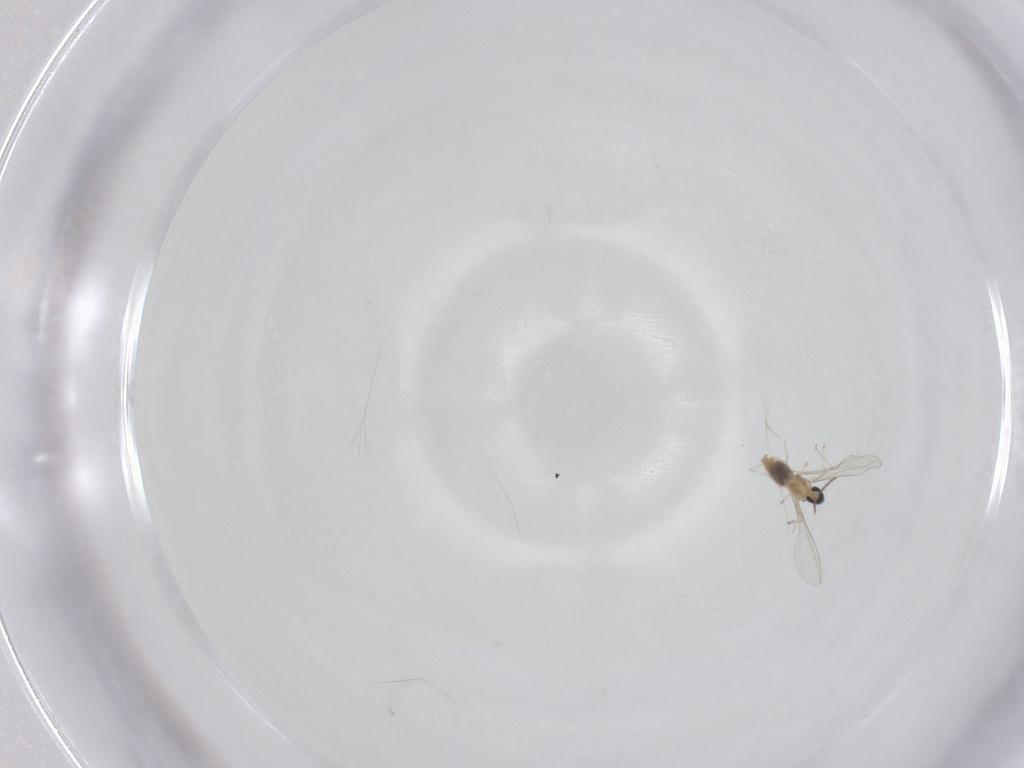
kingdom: Animalia
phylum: Arthropoda
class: Insecta
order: Diptera
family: Cecidomyiidae
